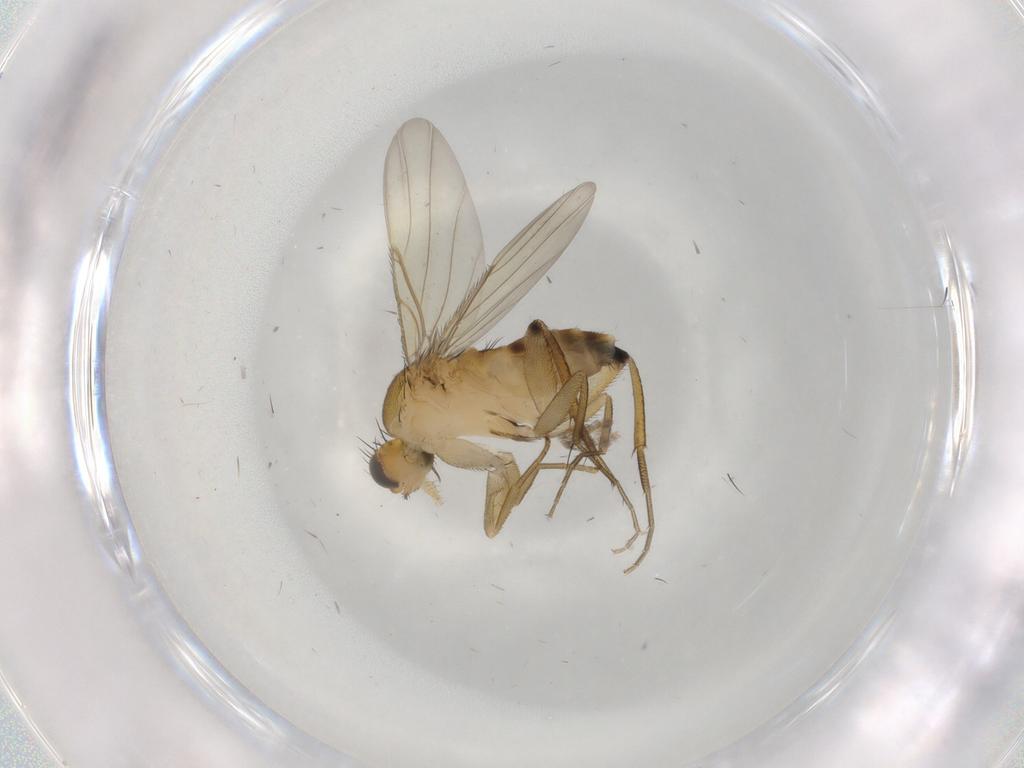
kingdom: Animalia
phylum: Arthropoda
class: Insecta
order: Diptera
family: Phoridae
